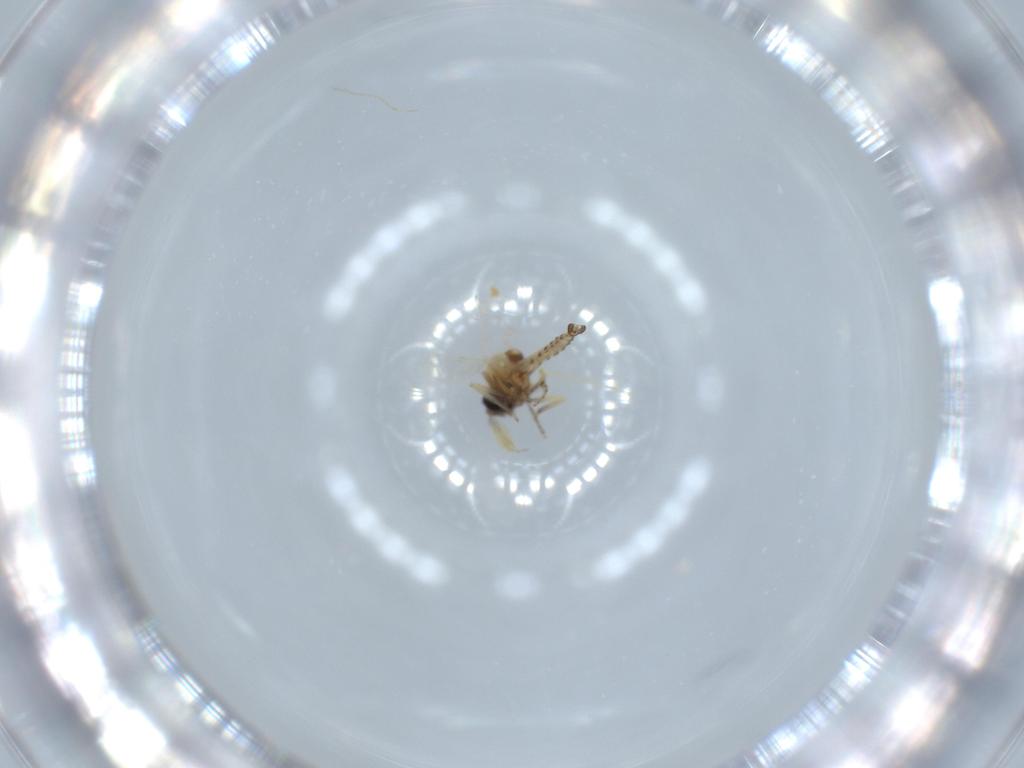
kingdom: Animalia
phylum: Arthropoda
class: Insecta
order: Diptera
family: Ceratopogonidae
